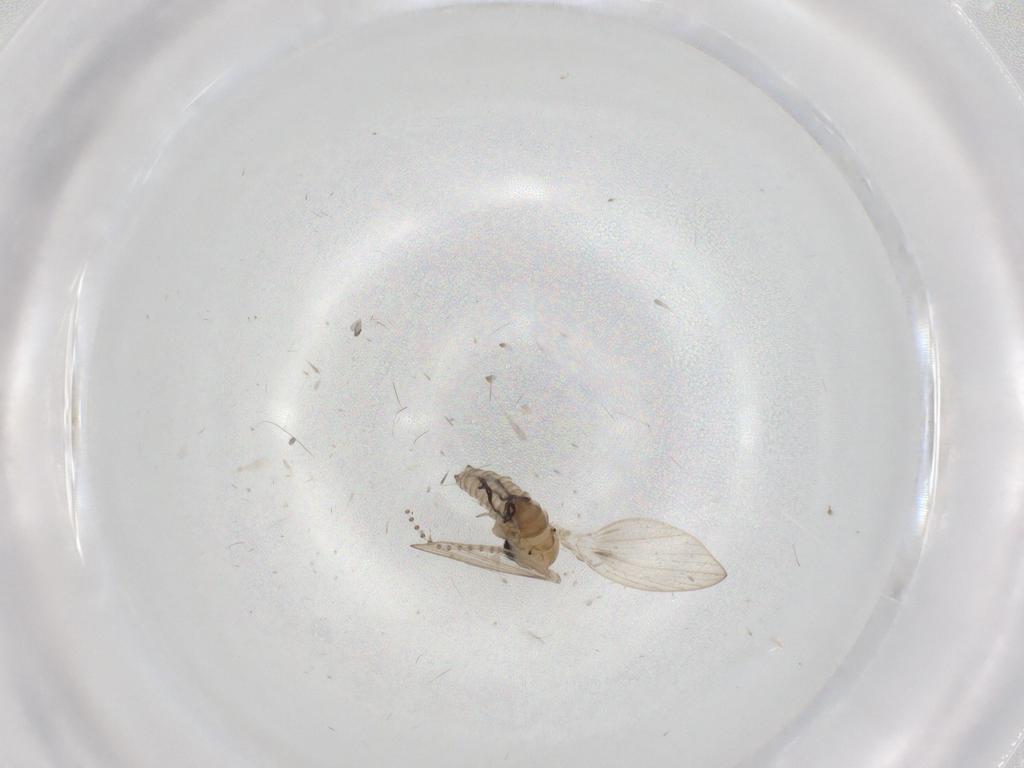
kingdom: Animalia
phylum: Arthropoda
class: Insecta
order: Diptera
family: Psychodidae
